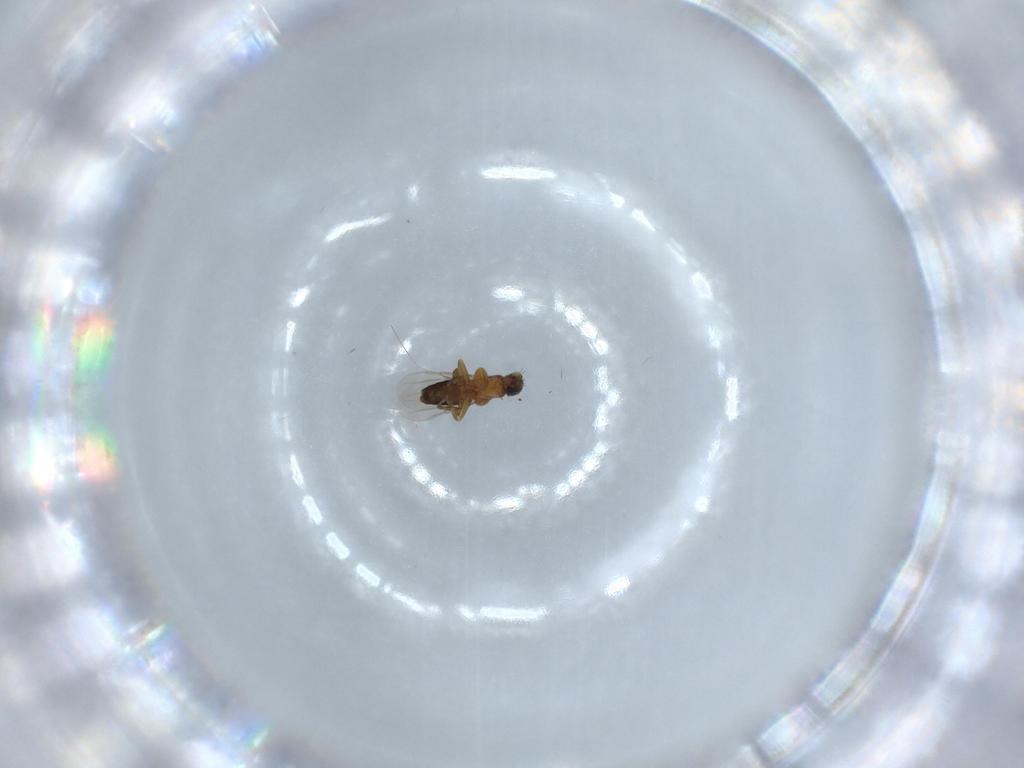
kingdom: Animalia
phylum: Arthropoda
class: Insecta
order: Diptera
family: Phoridae
